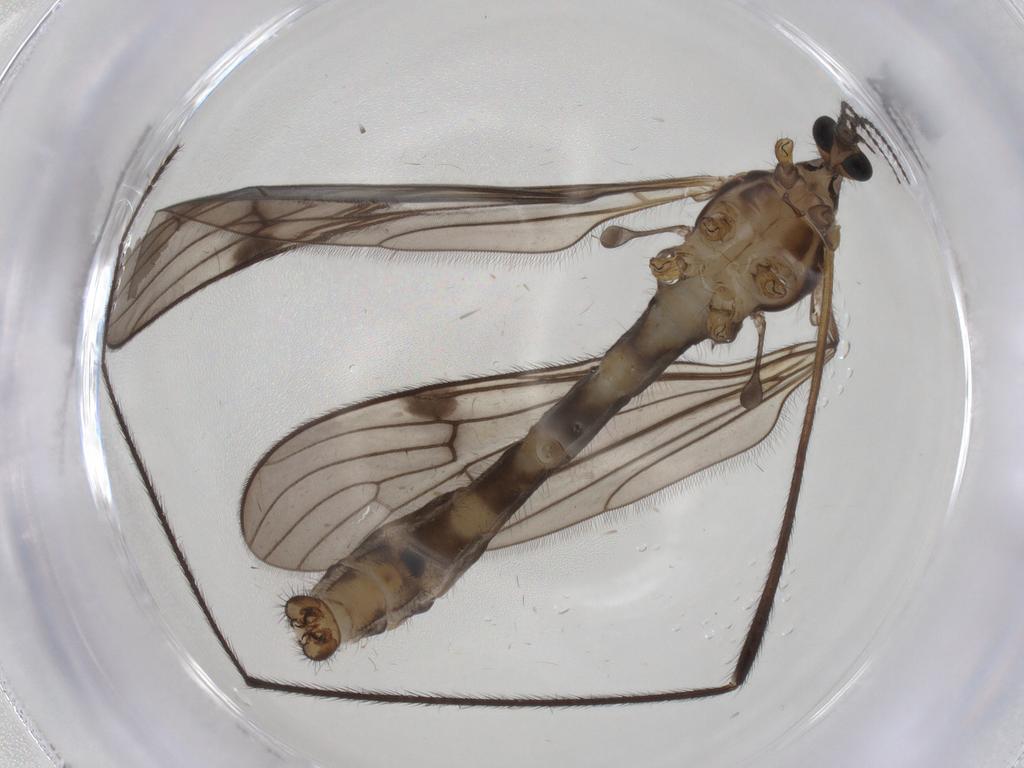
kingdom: Animalia
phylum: Arthropoda
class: Insecta
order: Diptera
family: Limoniidae
